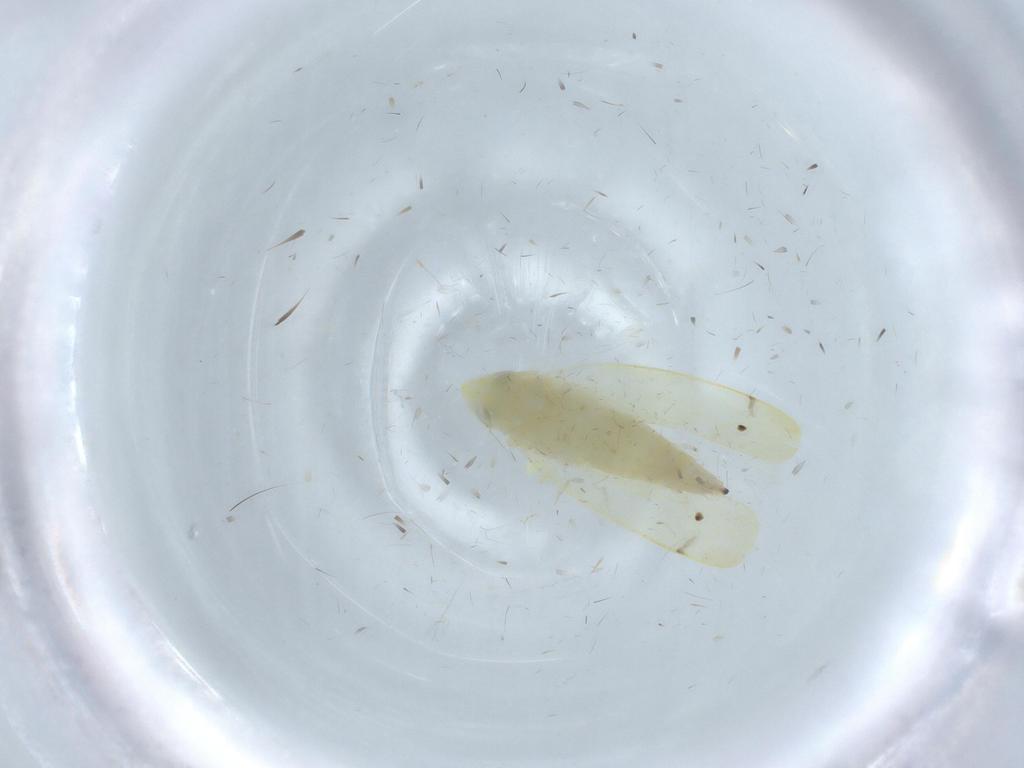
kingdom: Animalia
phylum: Arthropoda
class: Insecta
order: Hemiptera
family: Cicadellidae
